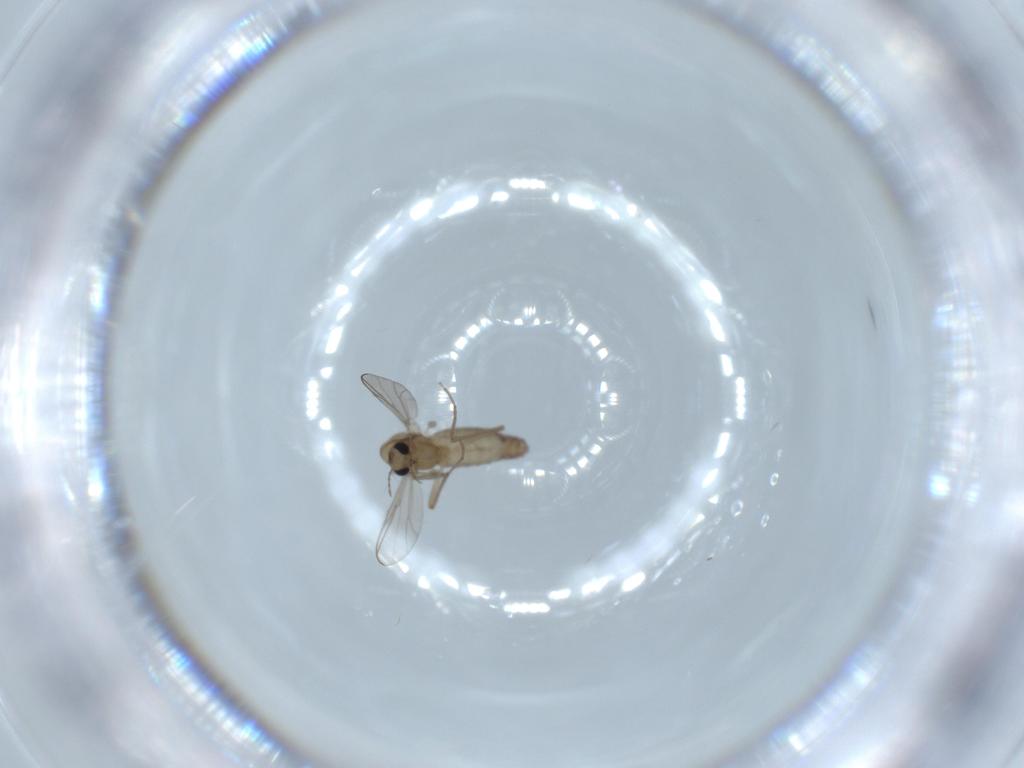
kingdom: Animalia
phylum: Arthropoda
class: Insecta
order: Diptera
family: Chironomidae
